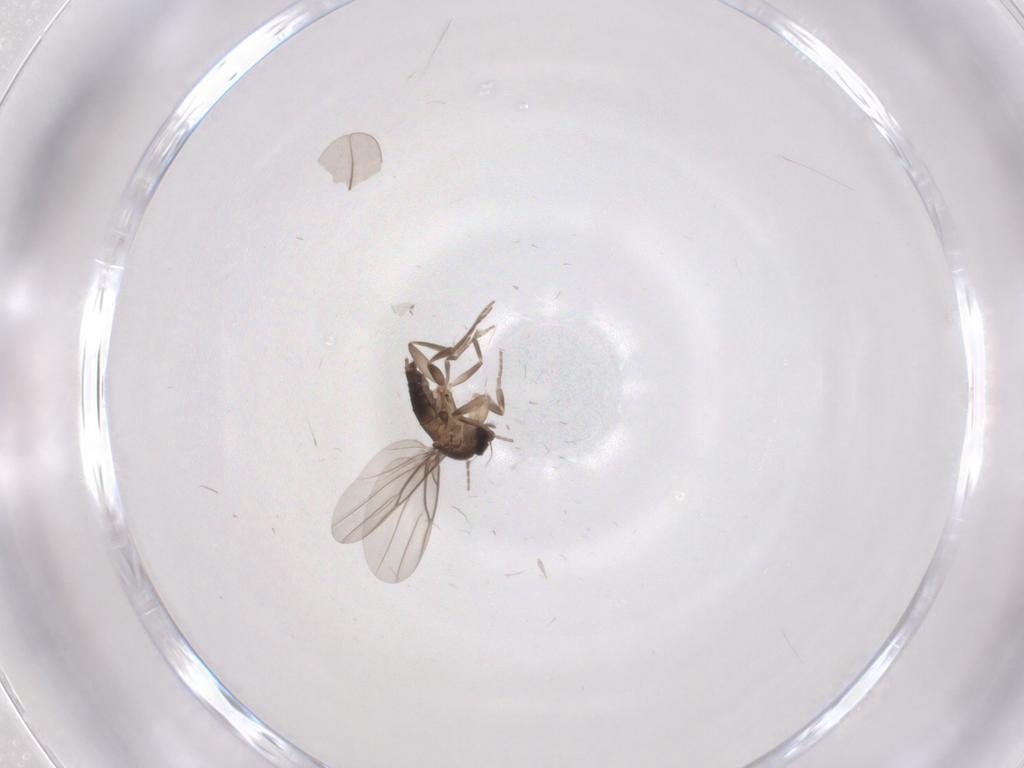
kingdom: Animalia
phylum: Arthropoda
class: Insecta
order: Diptera
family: Phoridae
